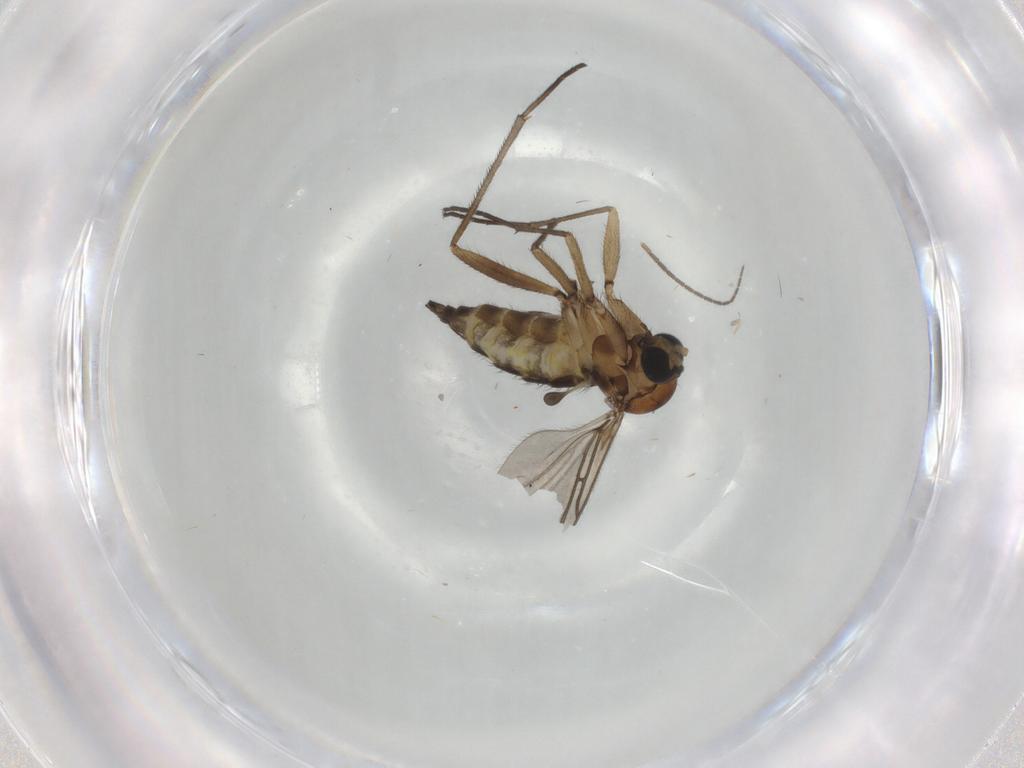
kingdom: Animalia
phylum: Arthropoda
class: Insecta
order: Diptera
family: Sciaridae
